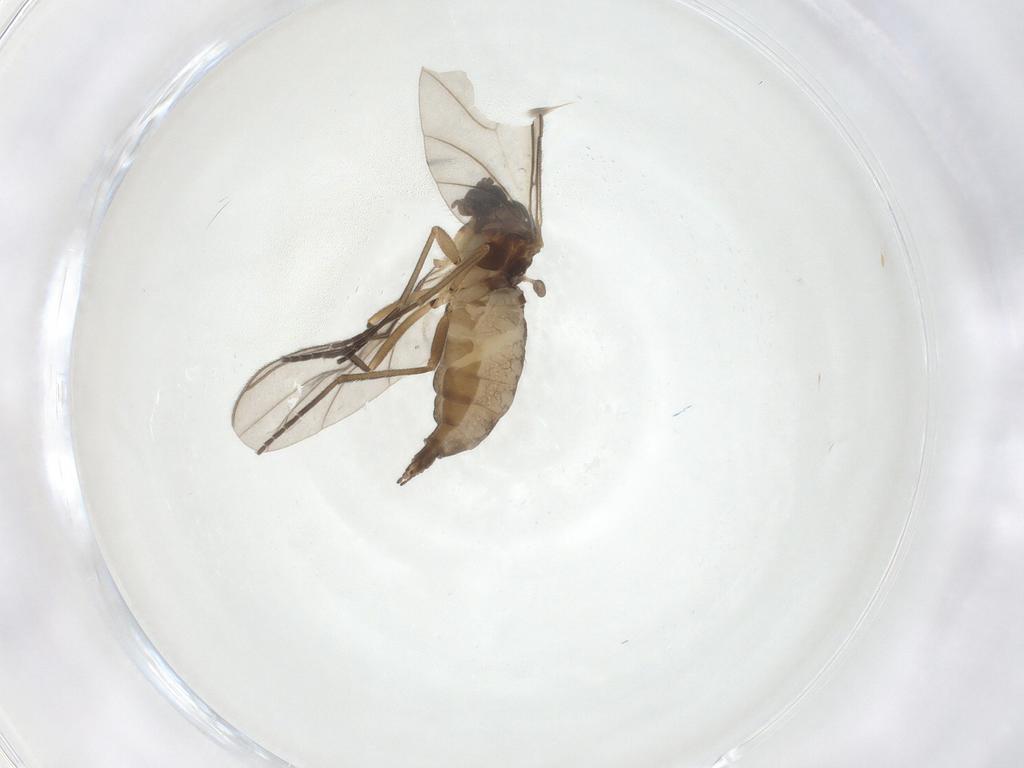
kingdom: Animalia
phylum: Arthropoda
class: Insecta
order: Diptera
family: Sciaridae
